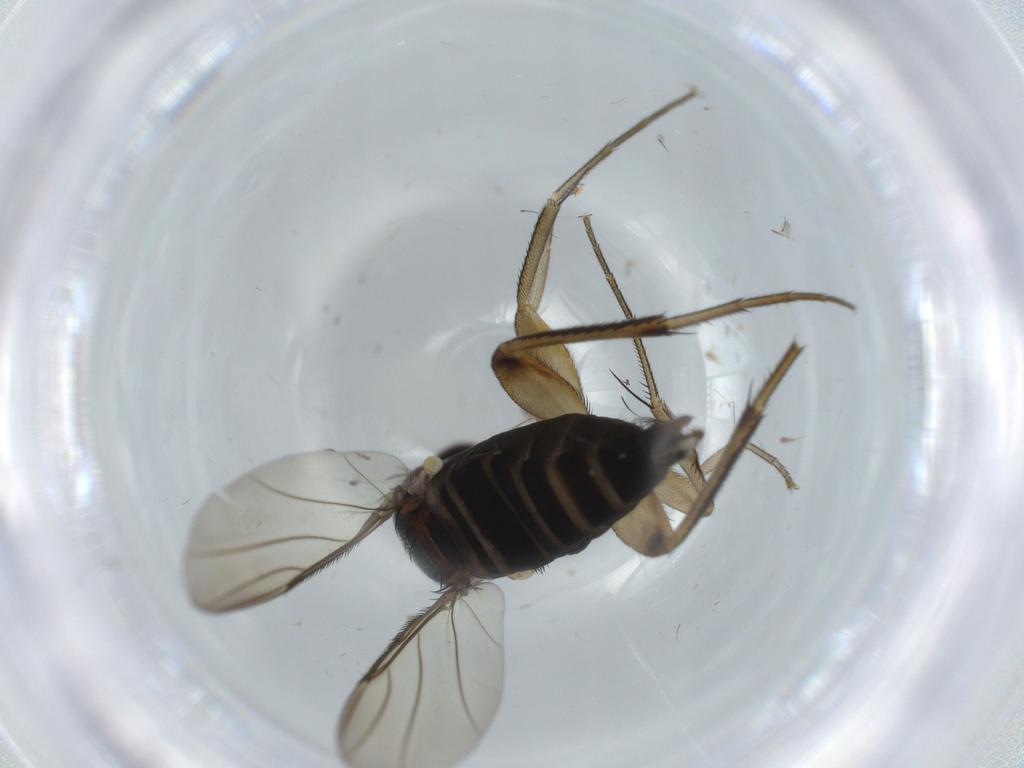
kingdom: Animalia
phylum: Arthropoda
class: Insecta
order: Diptera
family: Phoridae
